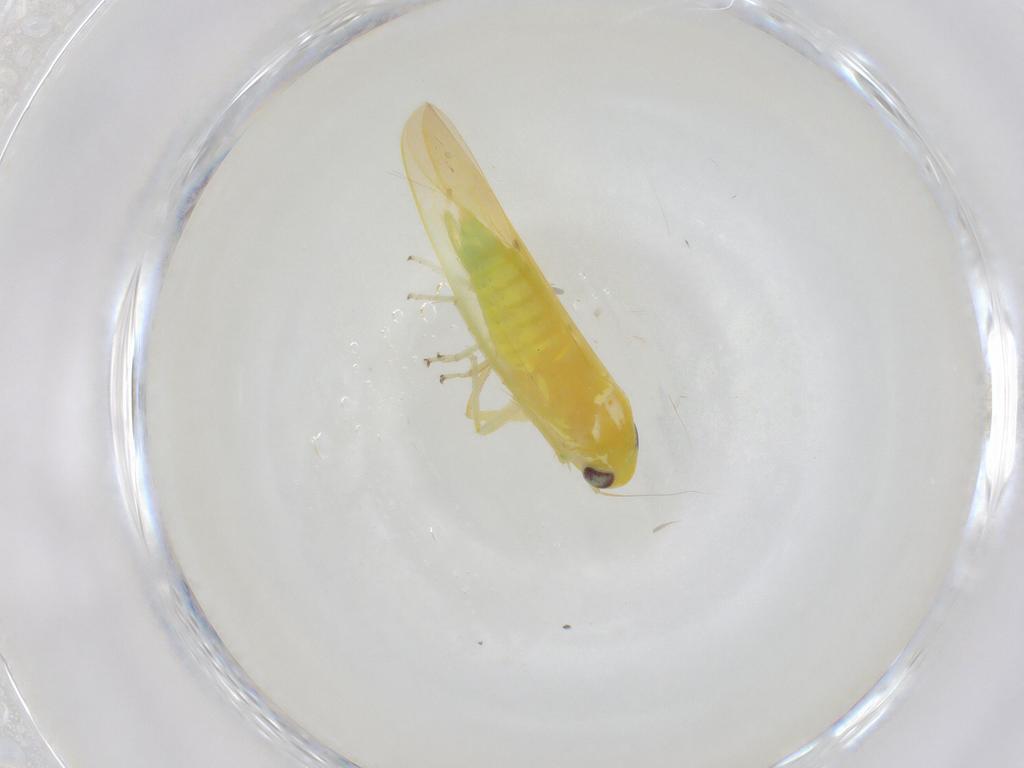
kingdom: Animalia
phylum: Arthropoda
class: Insecta
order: Hemiptera
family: Cicadellidae
